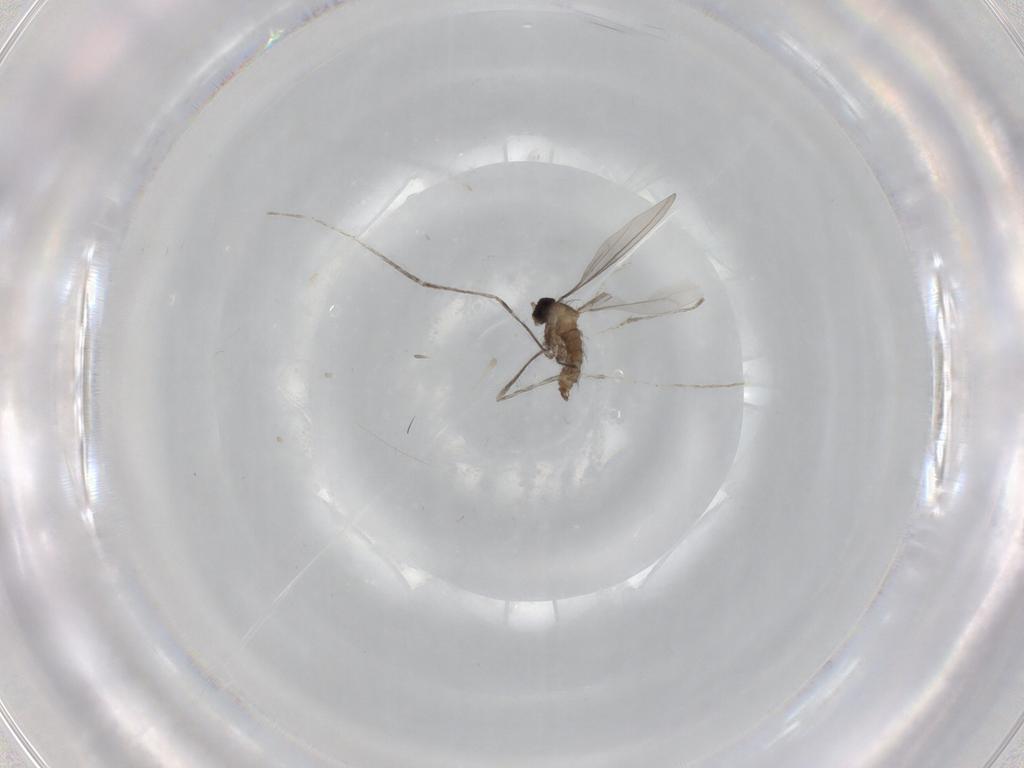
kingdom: Animalia
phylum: Arthropoda
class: Insecta
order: Diptera
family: Cecidomyiidae
